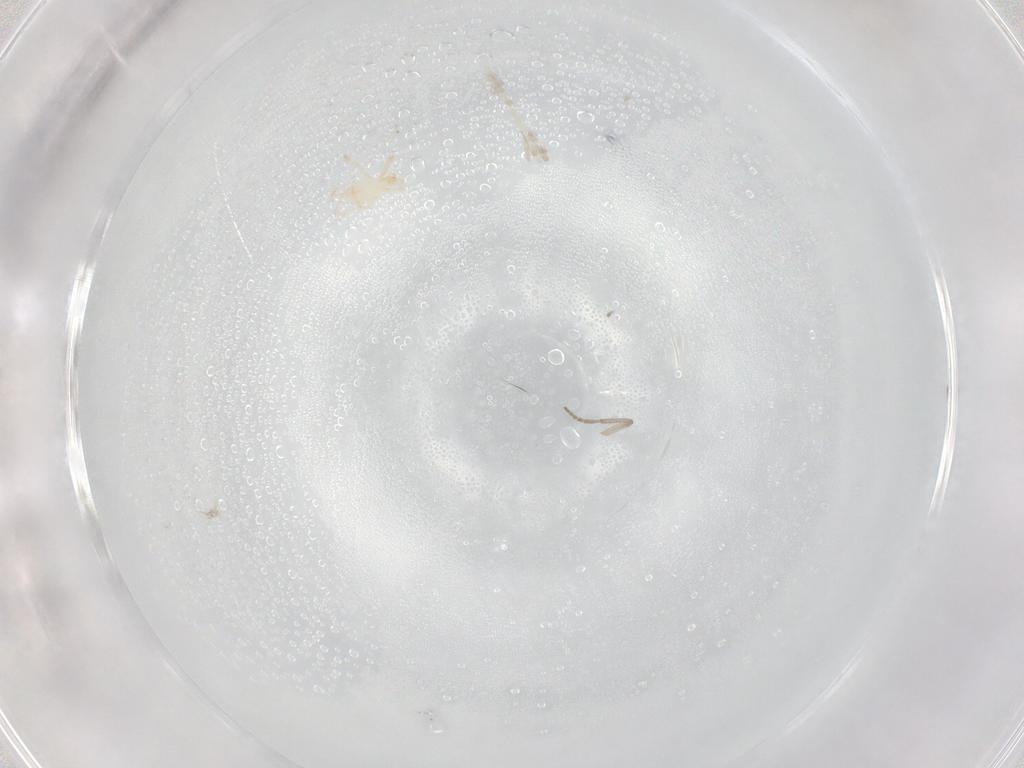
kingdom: Animalia
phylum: Arthropoda
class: Insecta
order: Diptera
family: Psychodidae
